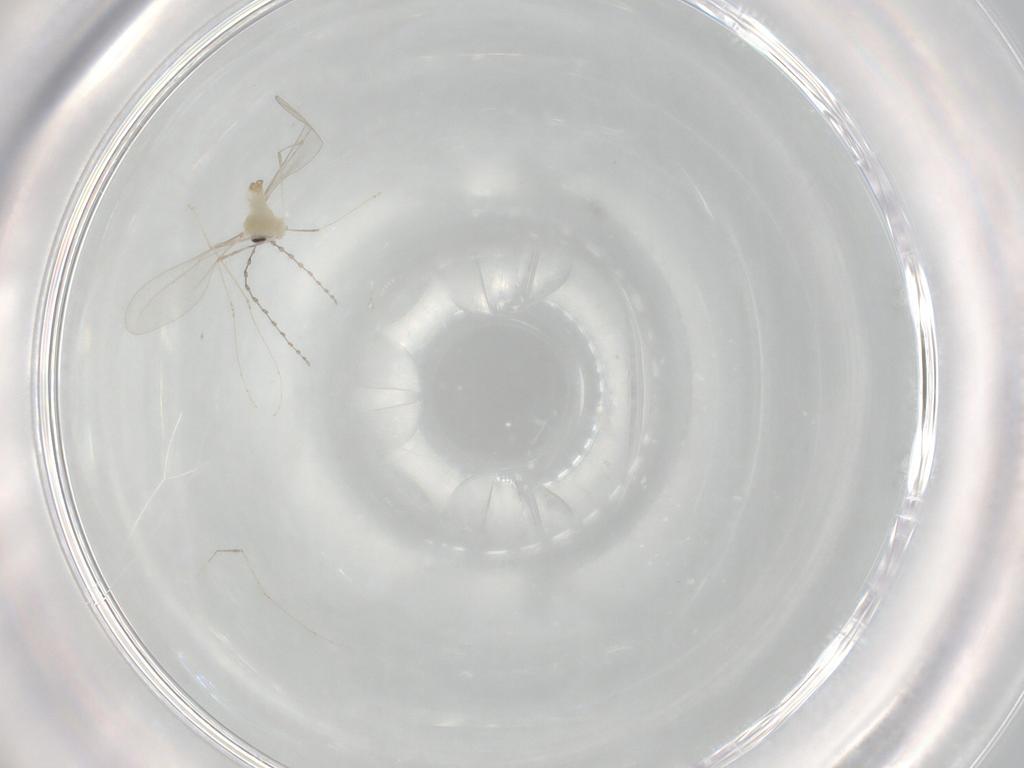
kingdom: Animalia
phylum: Arthropoda
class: Insecta
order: Diptera
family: Cecidomyiidae
